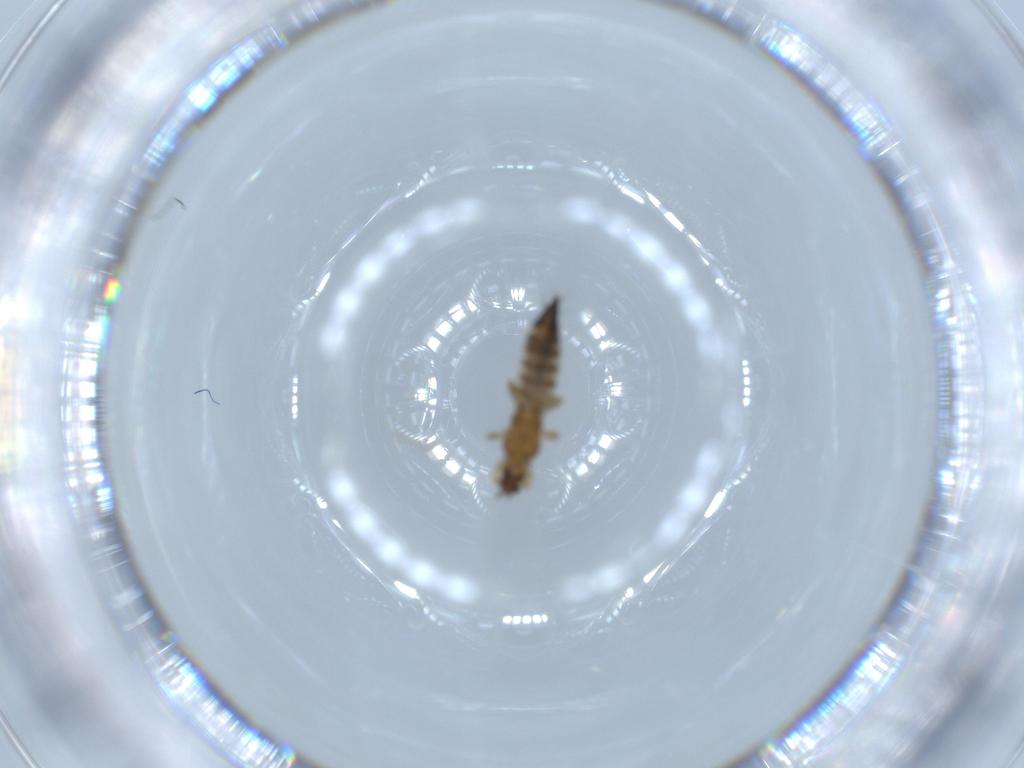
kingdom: Animalia
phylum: Arthropoda
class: Insecta
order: Thysanoptera
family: Thripidae
